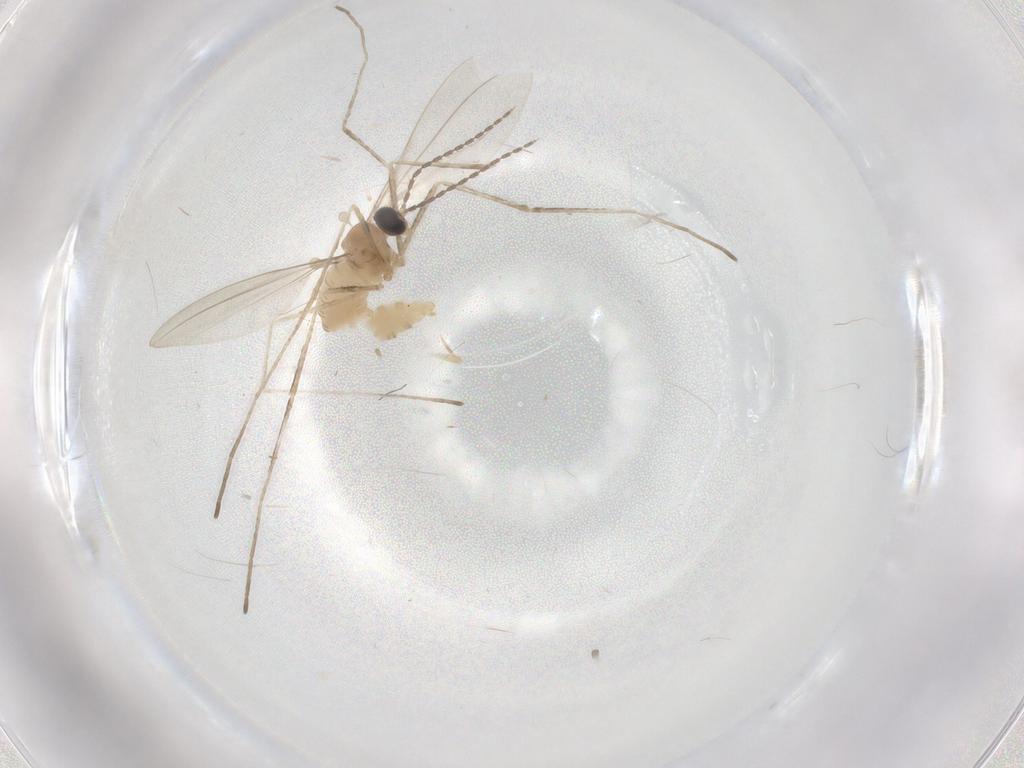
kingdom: Animalia
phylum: Arthropoda
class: Insecta
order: Diptera
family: Cecidomyiidae
